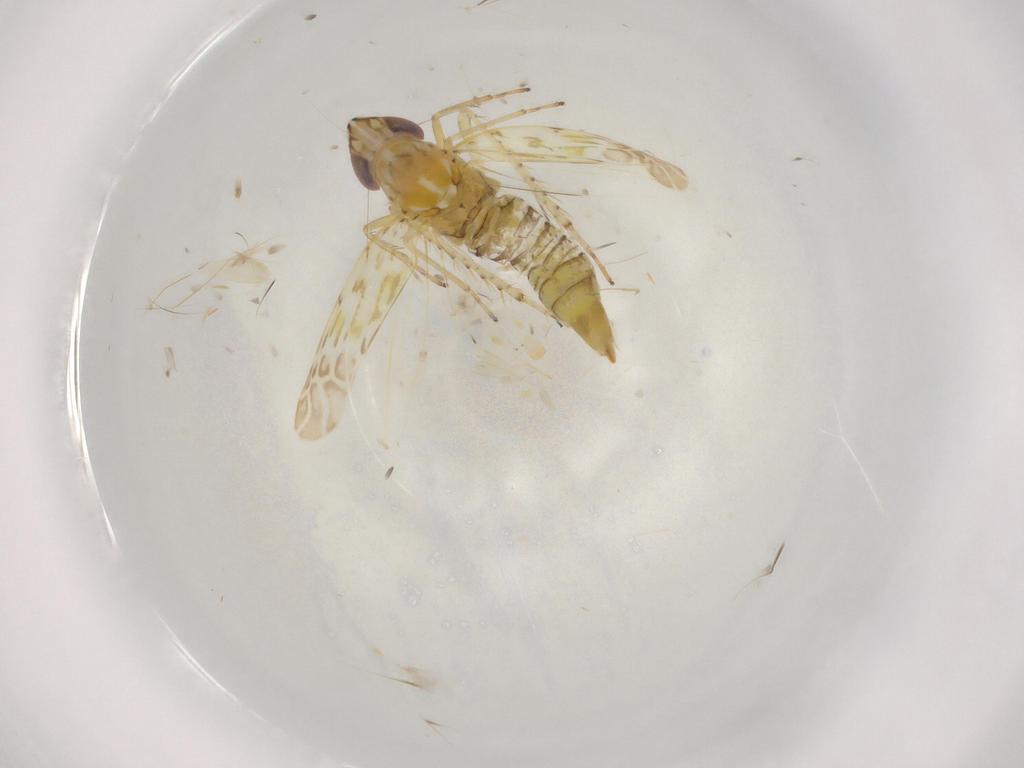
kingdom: Animalia
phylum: Arthropoda
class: Insecta
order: Hemiptera
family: Cicadellidae
